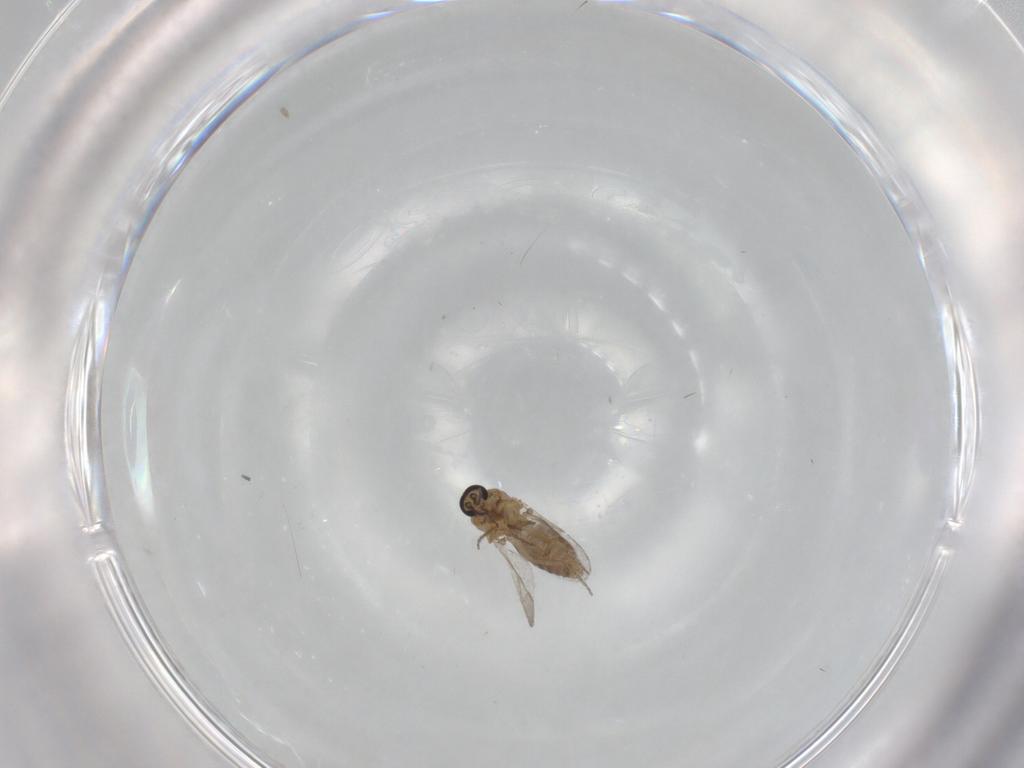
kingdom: Animalia
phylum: Arthropoda
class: Insecta
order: Diptera
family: Ceratopogonidae
